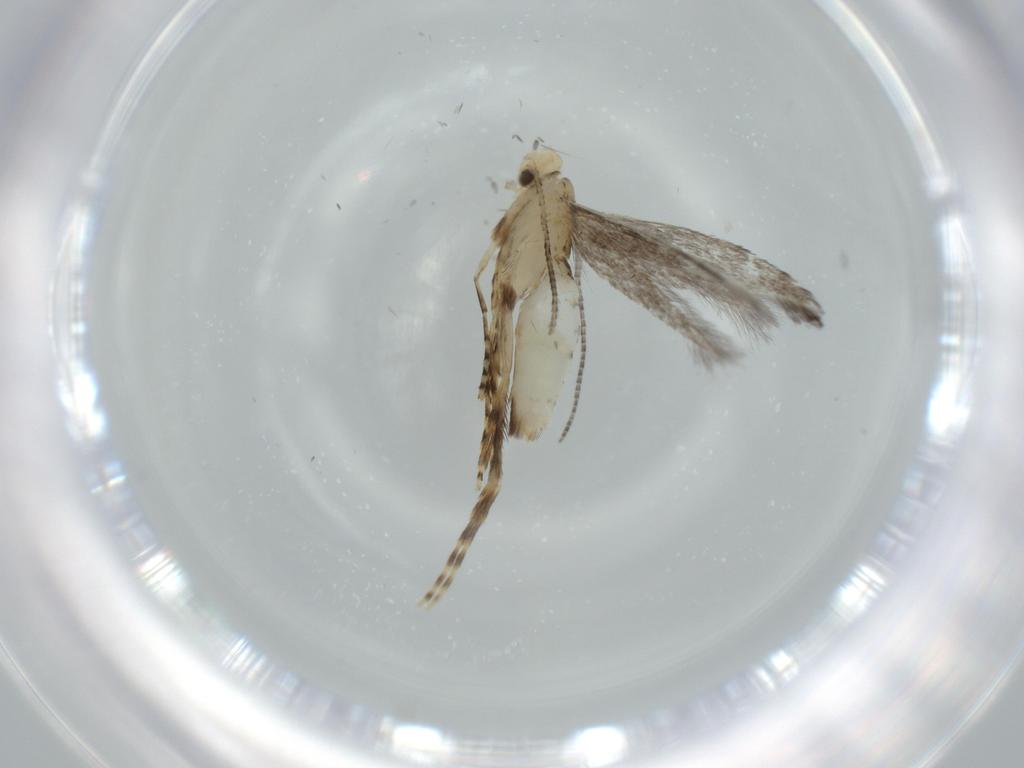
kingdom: Animalia
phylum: Arthropoda
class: Insecta
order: Lepidoptera
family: Gracillariidae
